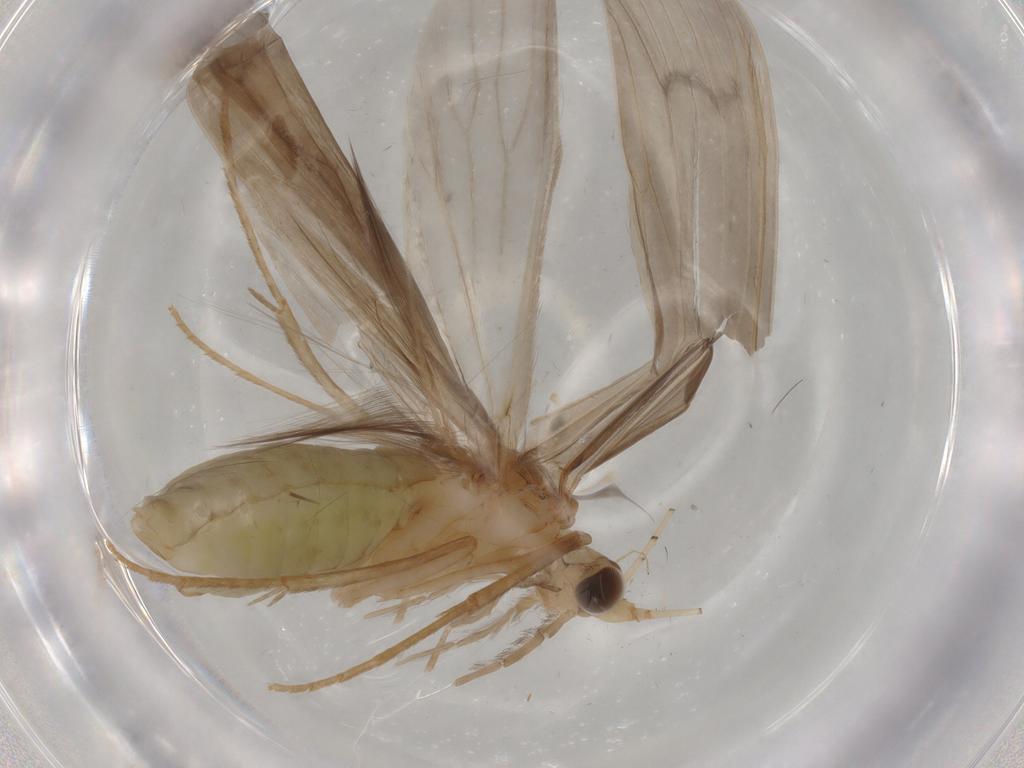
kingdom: Animalia
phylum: Arthropoda
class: Insecta
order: Trichoptera
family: Leptoceridae
